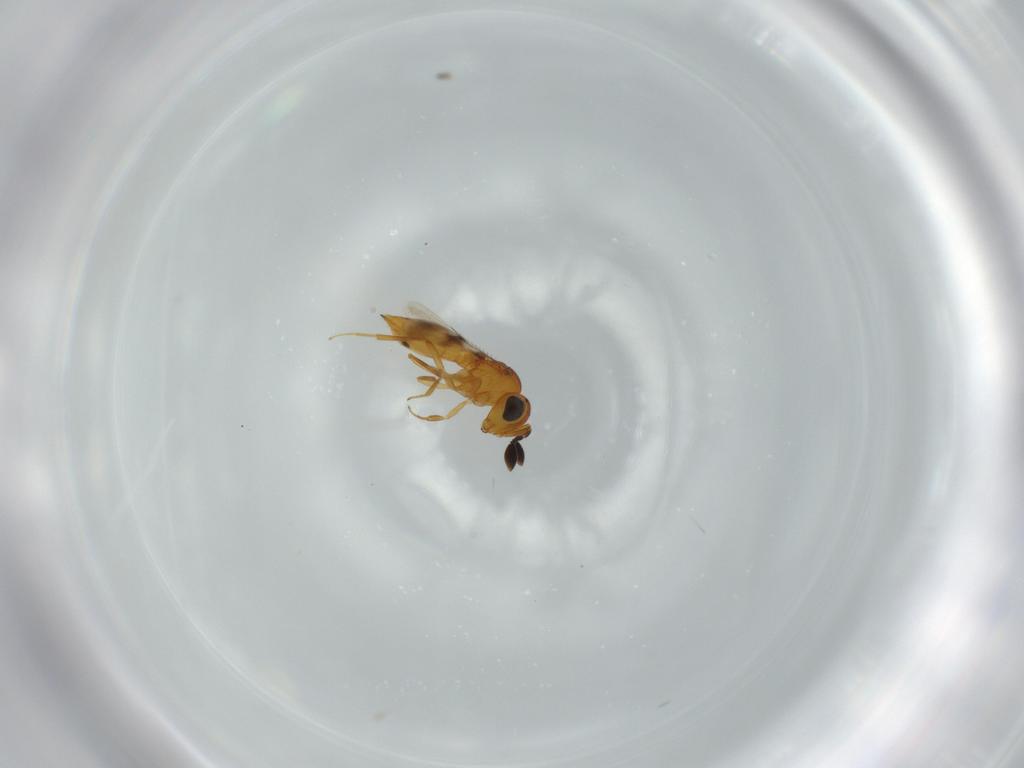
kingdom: Animalia
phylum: Arthropoda
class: Insecta
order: Hymenoptera
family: Scelionidae
